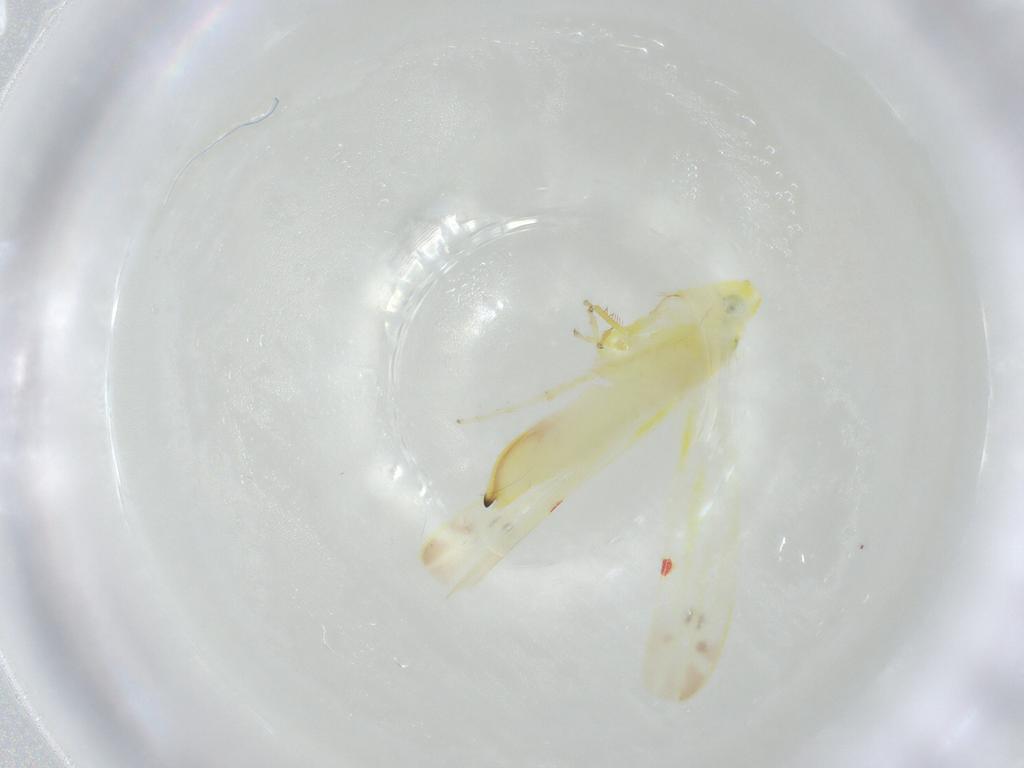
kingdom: Animalia
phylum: Arthropoda
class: Insecta
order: Hemiptera
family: Cicadellidae
